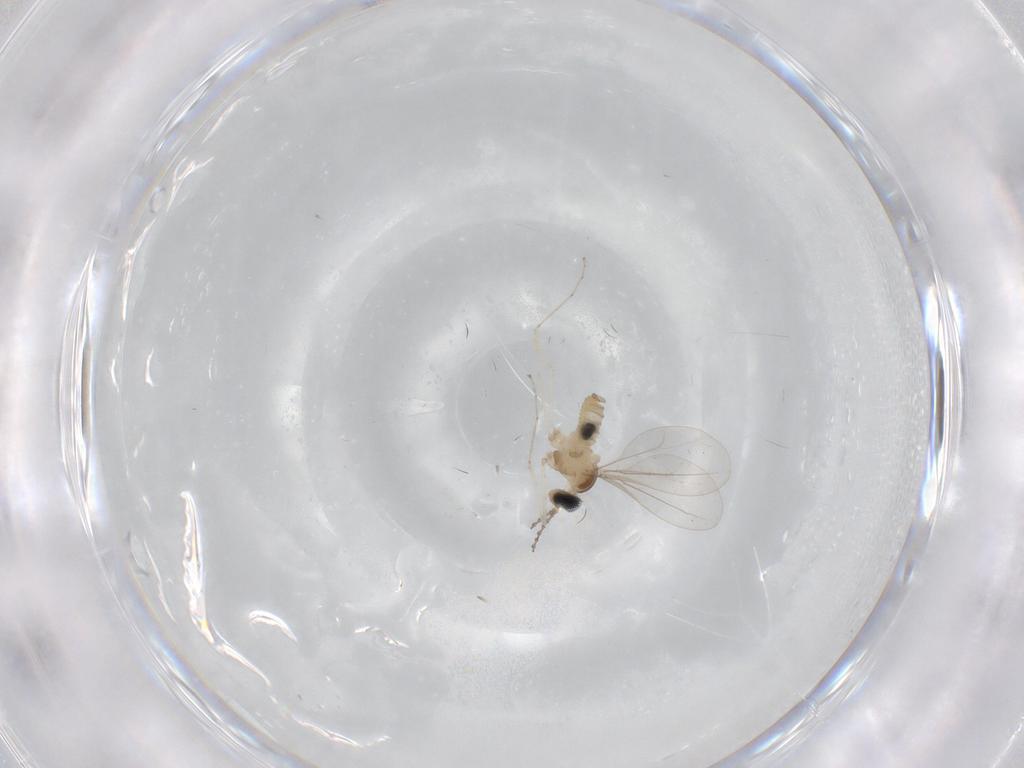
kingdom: Animalia
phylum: Arthropoda
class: Insecta
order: Diptera
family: Cecidomyiidae
